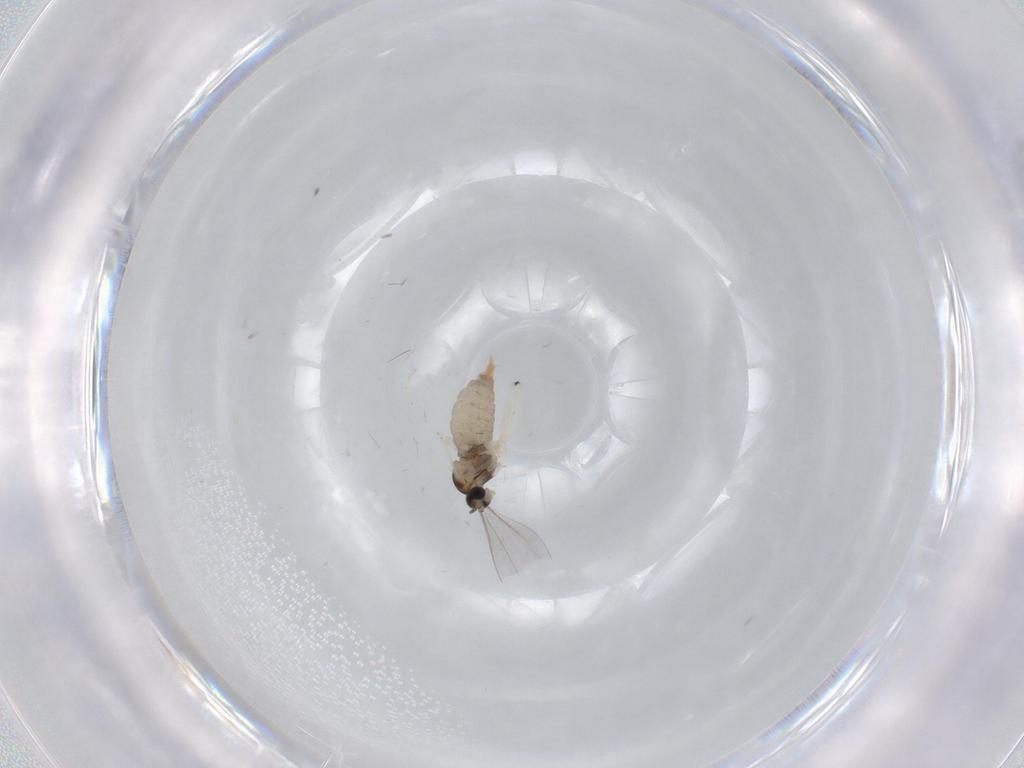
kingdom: Animalia
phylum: Arthropoda
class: Insecta
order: Diptera
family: Cecidomyiidae
